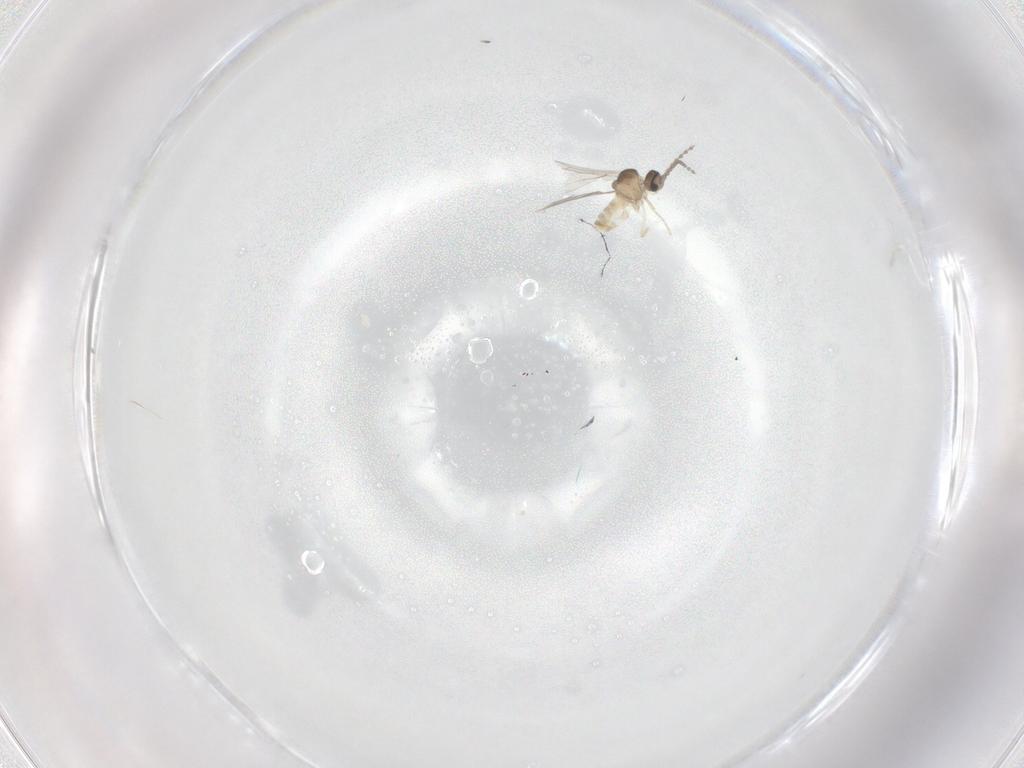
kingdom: Animalia
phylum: Arthropoda
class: Insecta
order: Diptera
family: Cecidomyiidae
